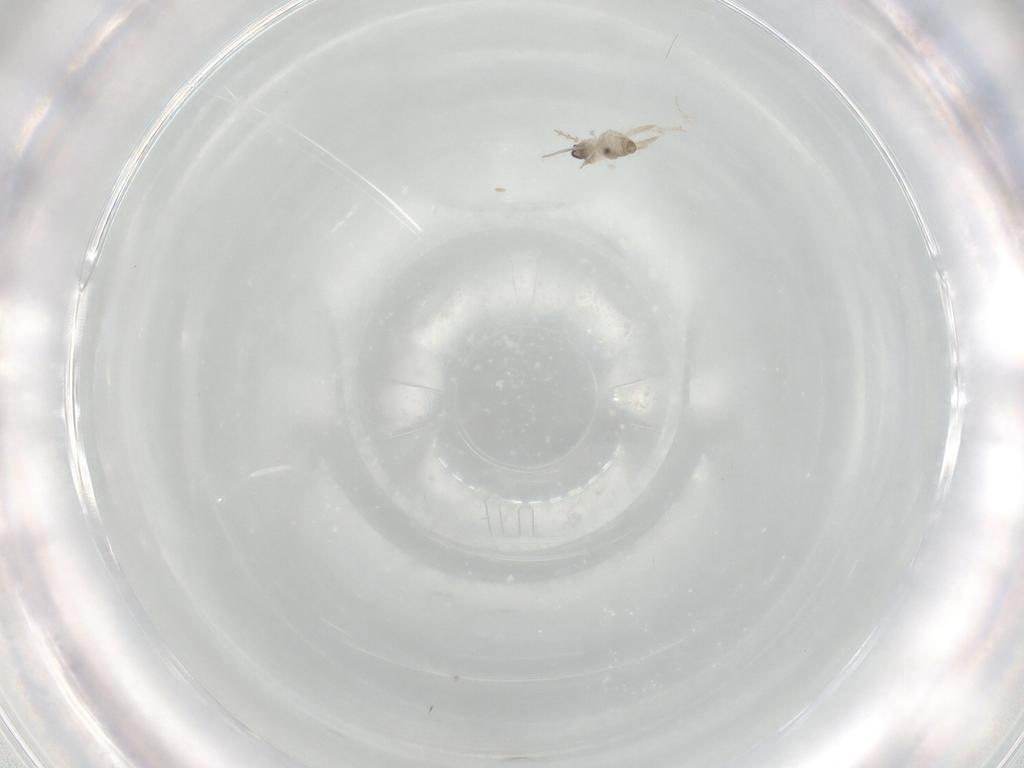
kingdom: Animalia
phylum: Arthropoda
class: Insecta
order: Diptera
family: Cecidomyiidae
